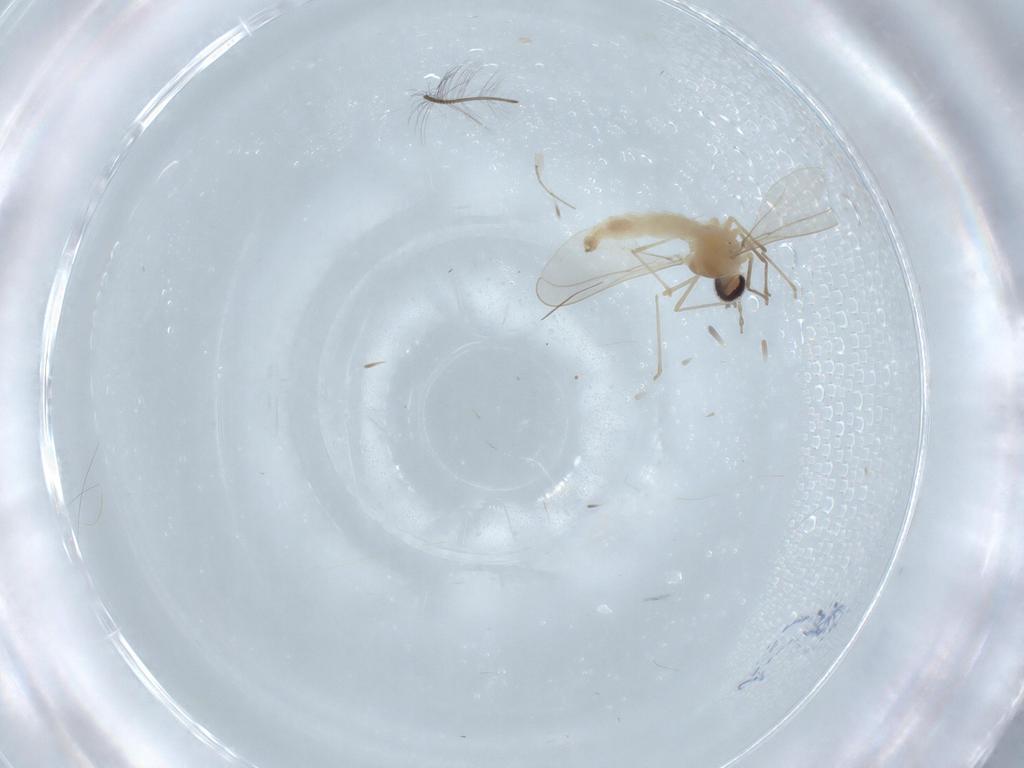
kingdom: Animalia
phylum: Arthropoda
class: Insecta
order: Diptera
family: Cecidomyiidae
